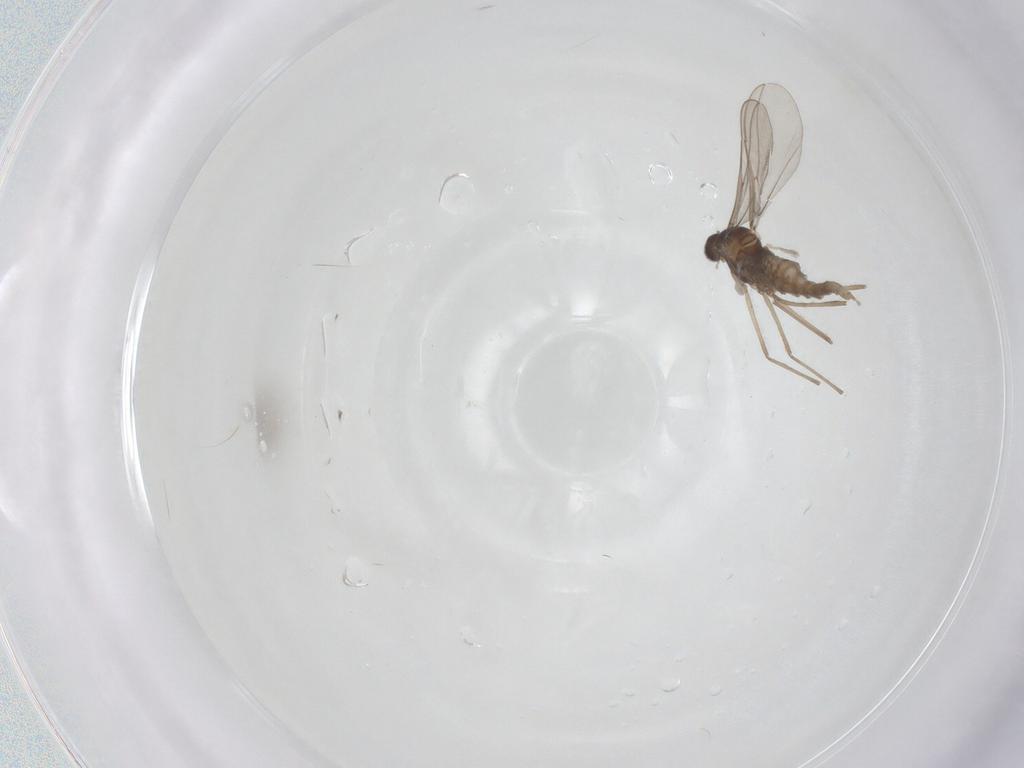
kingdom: Animalia
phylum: Arthropoda
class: Insecta
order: Diptera
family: Cecidomyiidae
